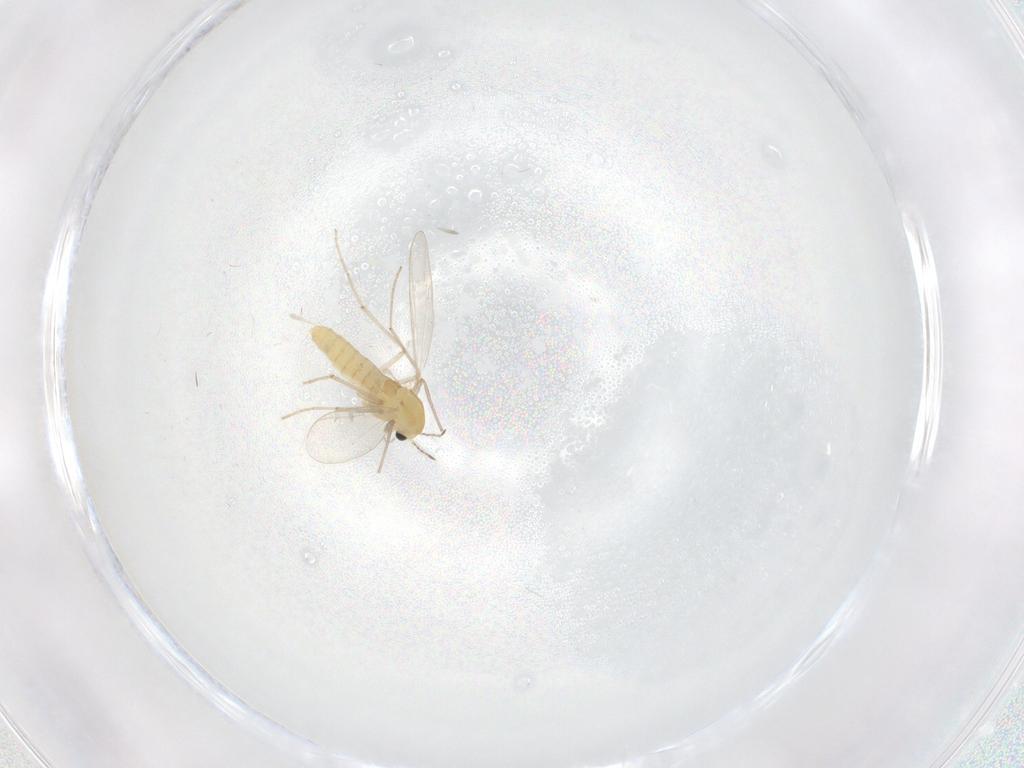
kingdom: Animalia
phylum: Arthropoda
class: Insecta
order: Diptera
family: Chironomidae
